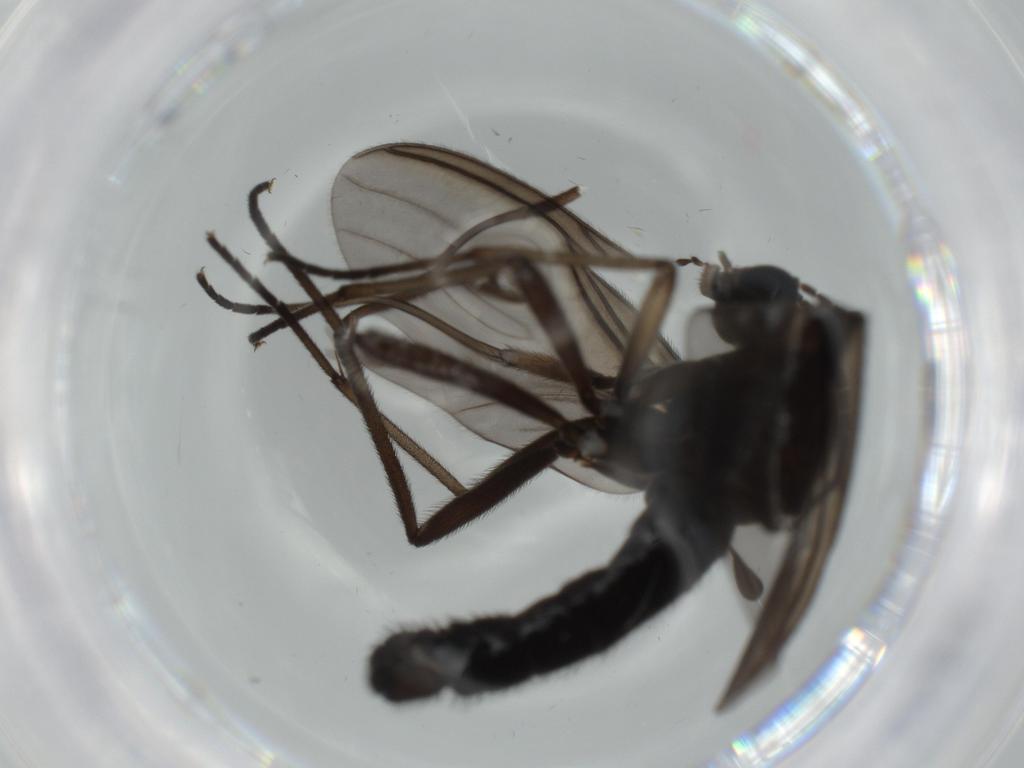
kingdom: Animalia
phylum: Arthropoda
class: Insecta
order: Diptera
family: Sciaridae
